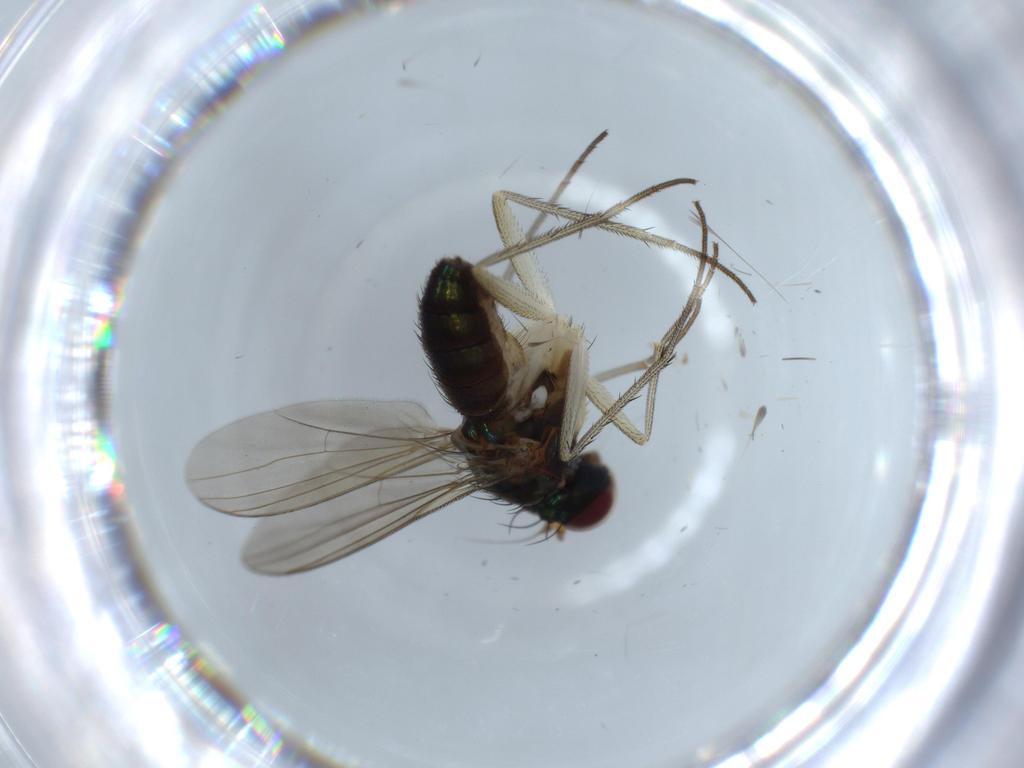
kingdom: Animalia
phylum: Arthropoda
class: Insecta
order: Diptera
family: Dolichopodidae
